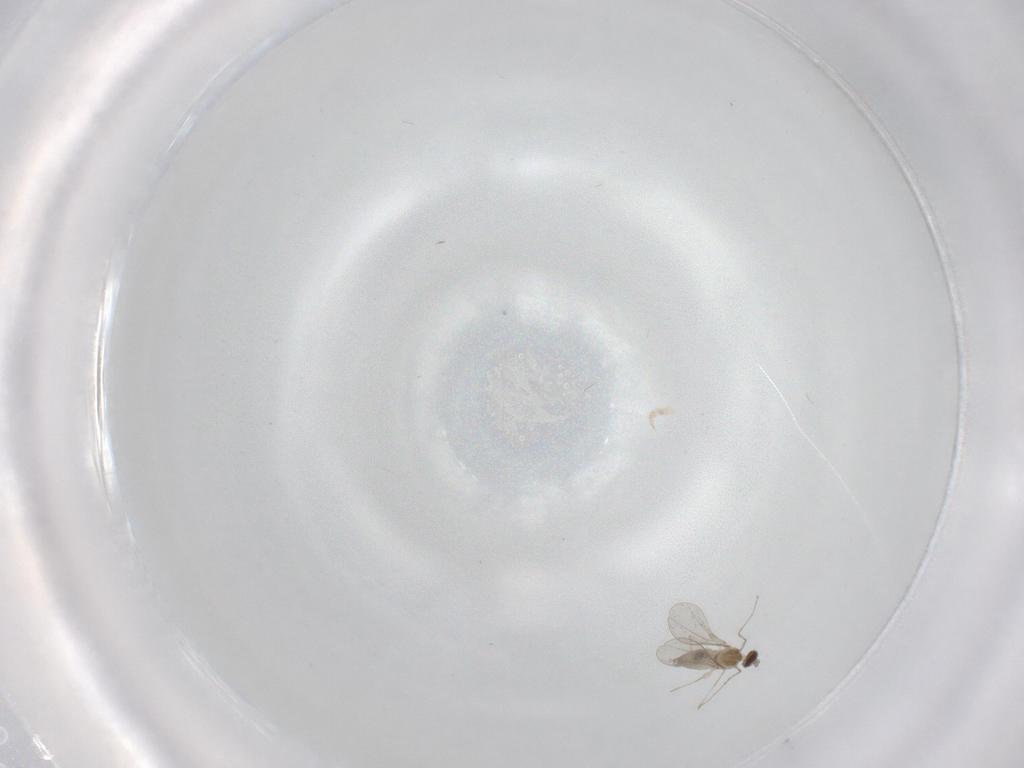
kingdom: Animalia
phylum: Arthropoda
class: Insecta
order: Diptera
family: Cecidomyiidae
